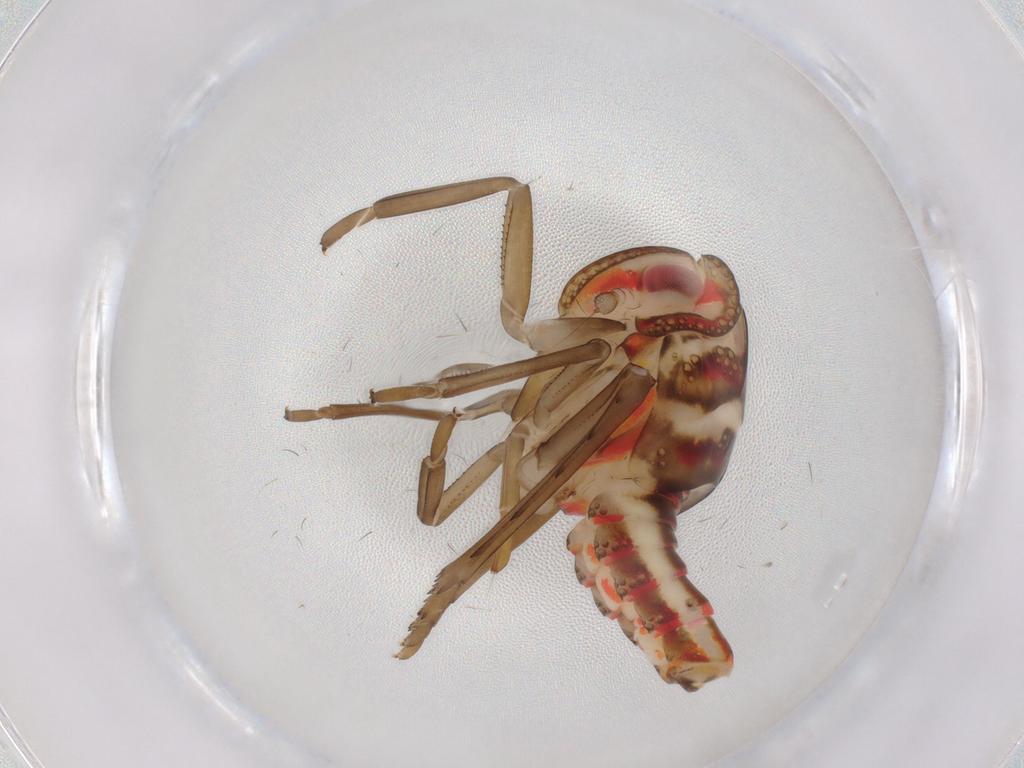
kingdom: Animalia
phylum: Arthropoda
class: Insecta
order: Hemiptera
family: Nogodinidae
